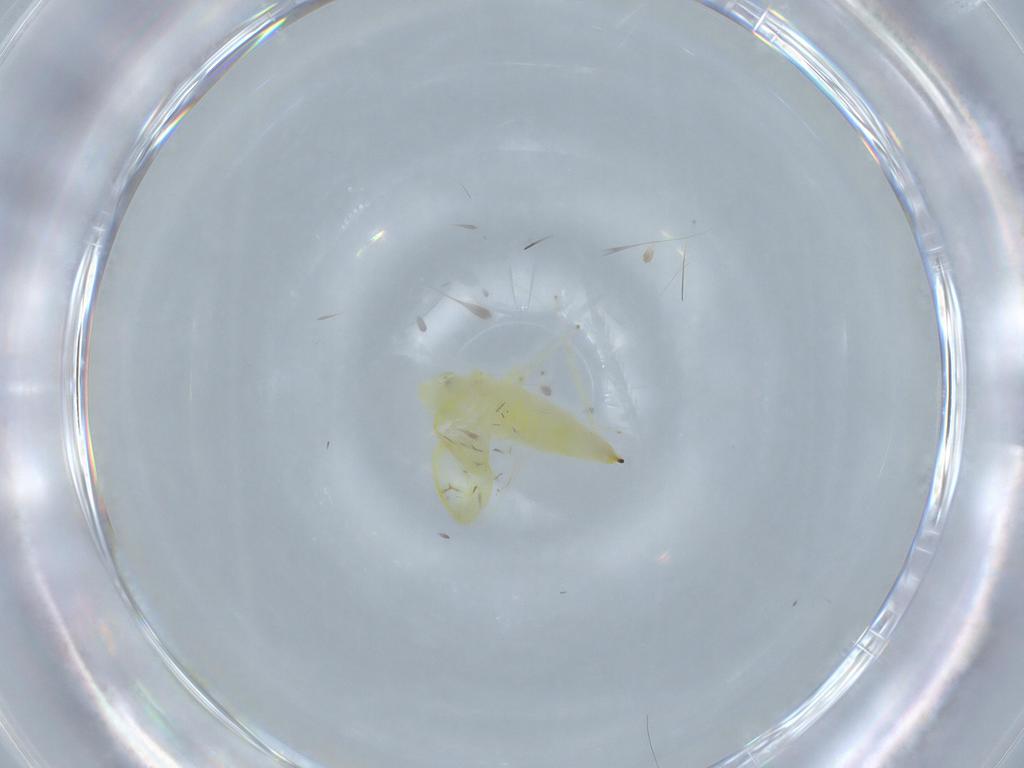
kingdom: Animalia
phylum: Arthropoda
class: Insecta
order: Hemiptera
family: Cicadellidae
